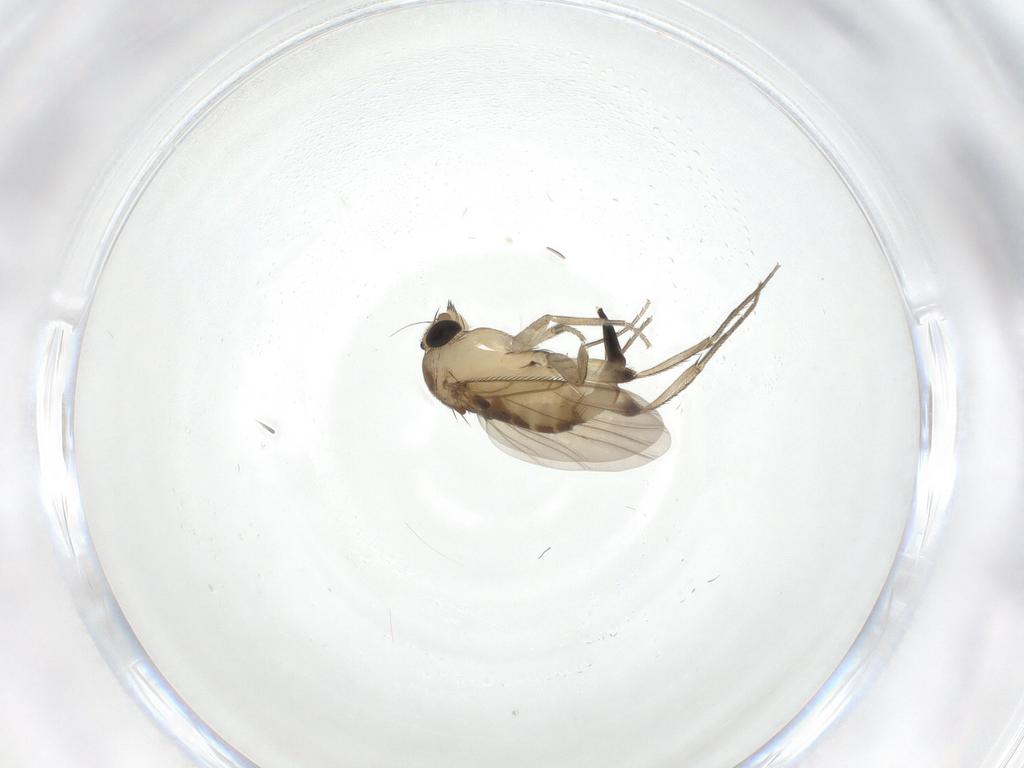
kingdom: Animalia
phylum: Arthropoda
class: Insecta
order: Diptera
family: Phoridae
